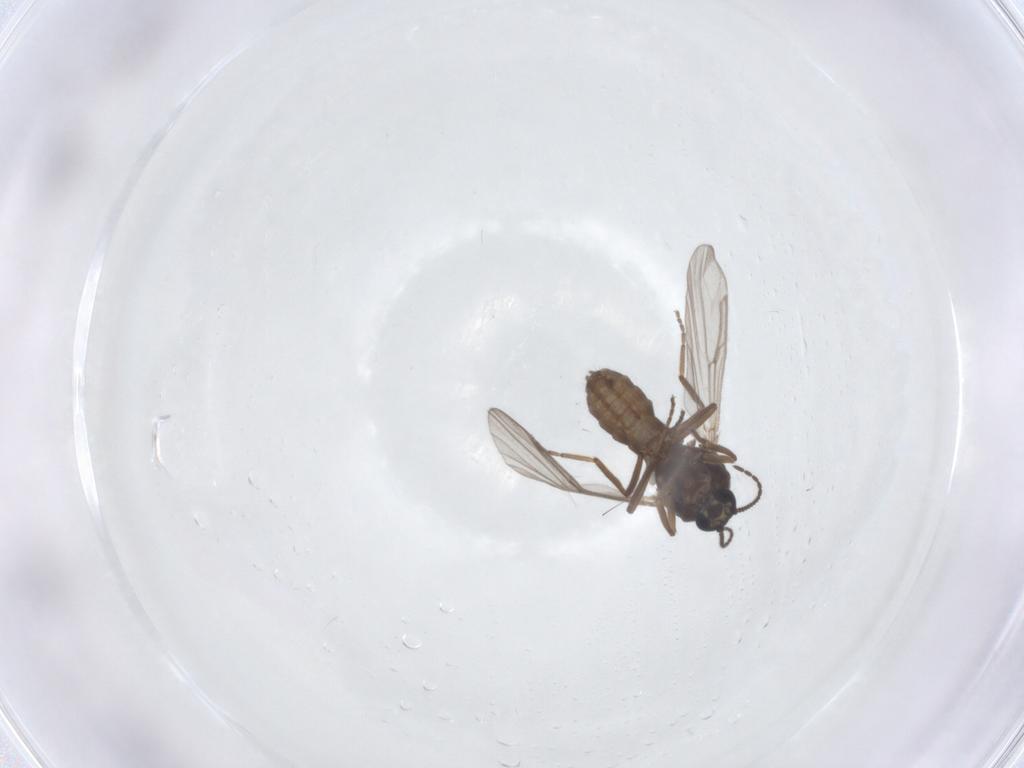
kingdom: Animalia
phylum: Arthropoda
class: Insecta
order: Diptera
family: Ceratopogonidae
